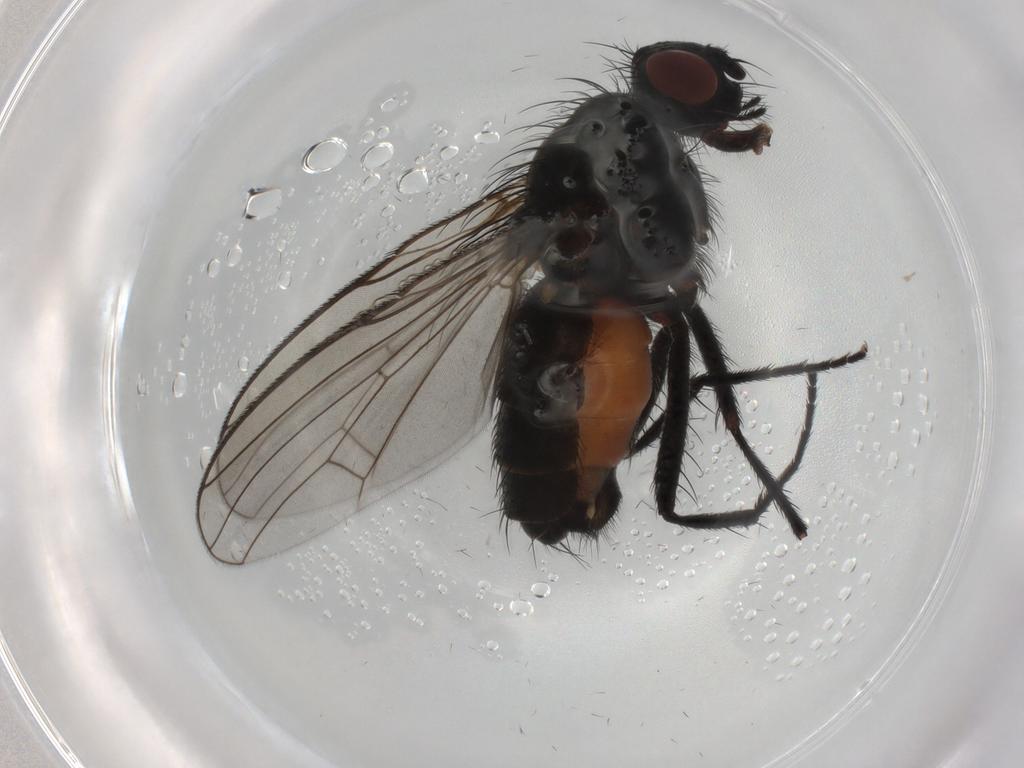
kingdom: Animalia
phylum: Arthropoda
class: Insecta
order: Diptera
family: Anthomyiidae
